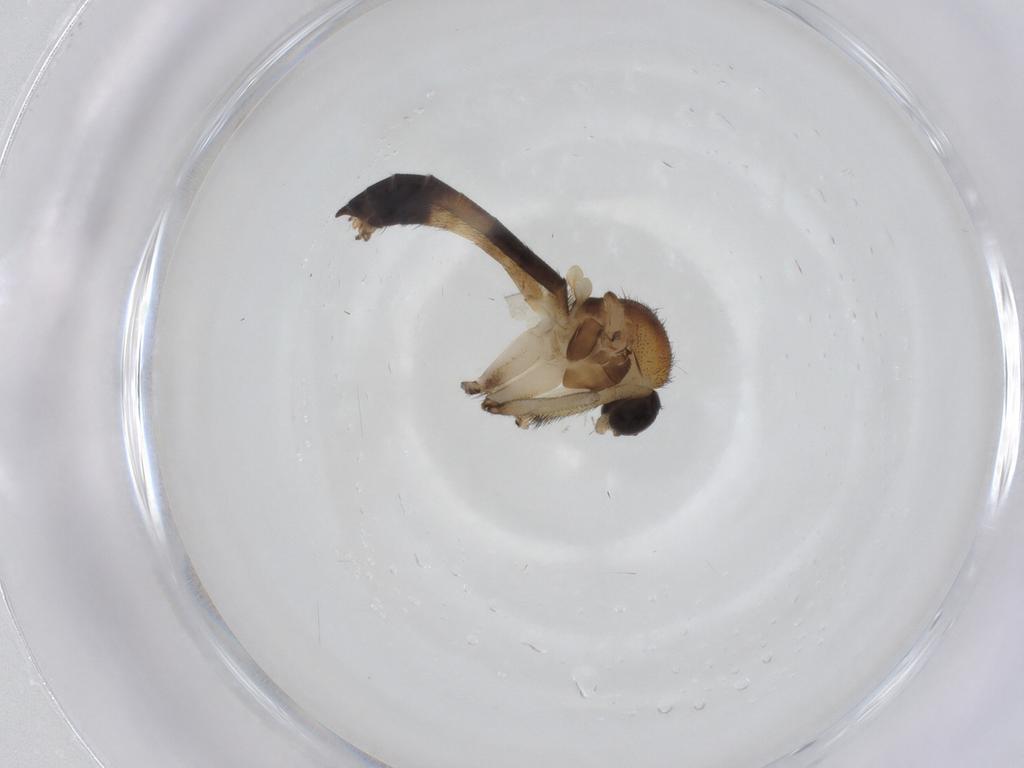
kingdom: Animalia
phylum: Arthropoda
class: Insecta
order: Diptera
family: Keroplatidae
